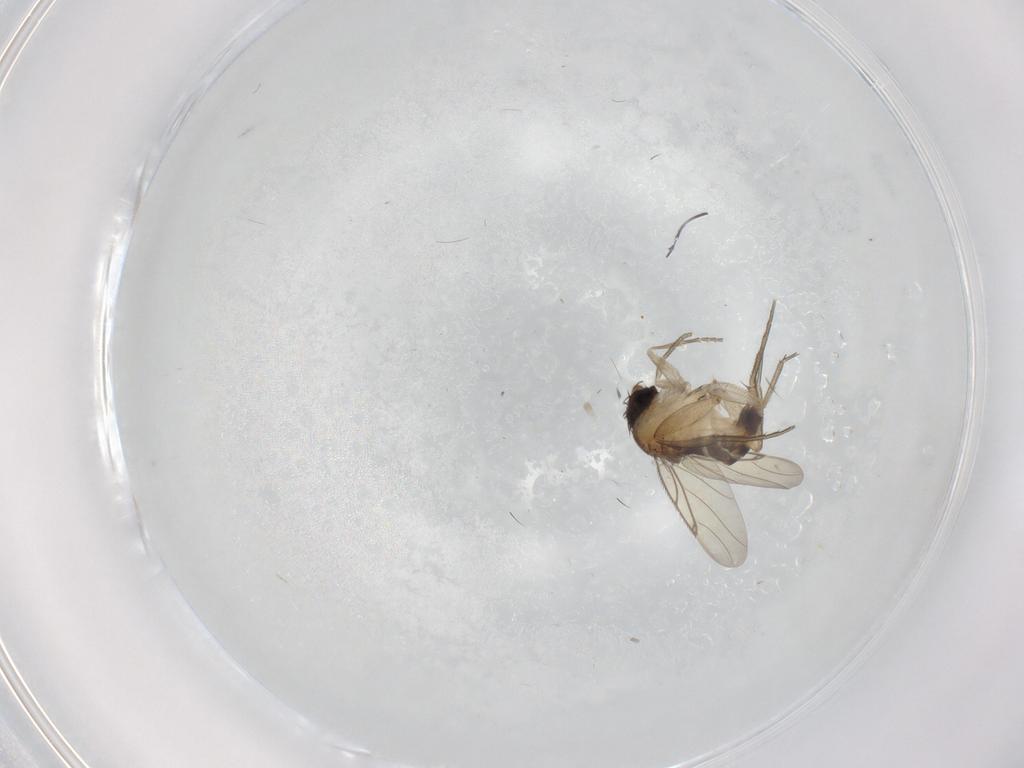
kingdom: Animalia
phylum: Arthropoda
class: Insecta
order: Diptera
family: Phoridae
